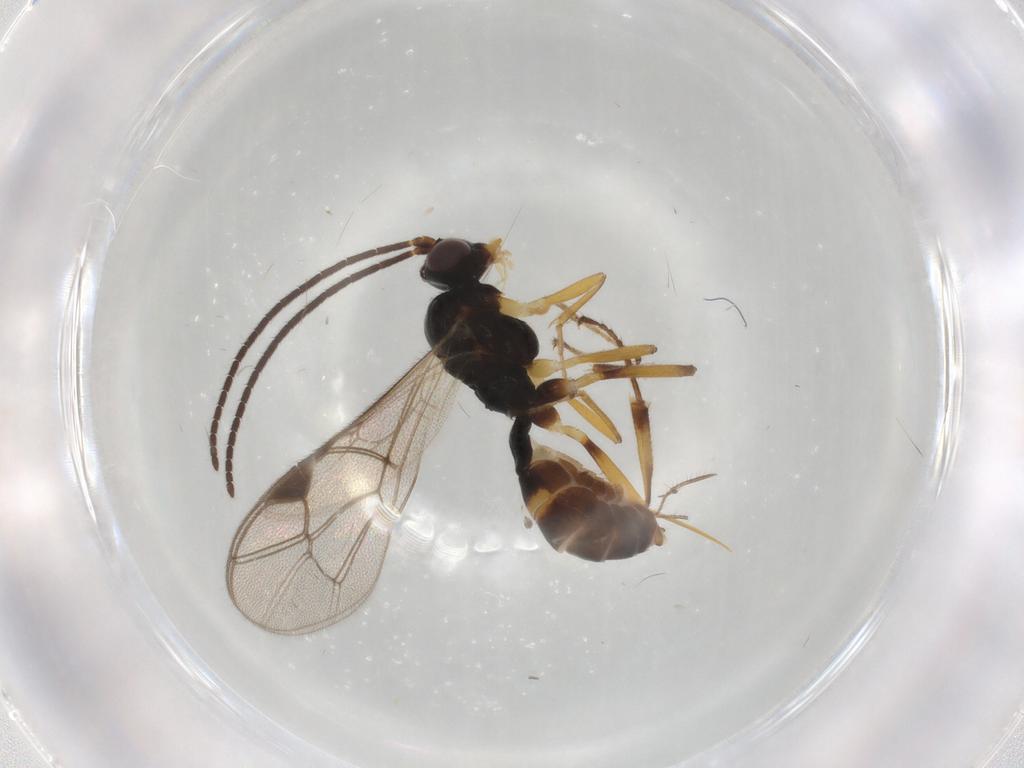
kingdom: Animalia
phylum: Arthropoda
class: Insecta
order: Hymenoptera
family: Ichneumonidae
